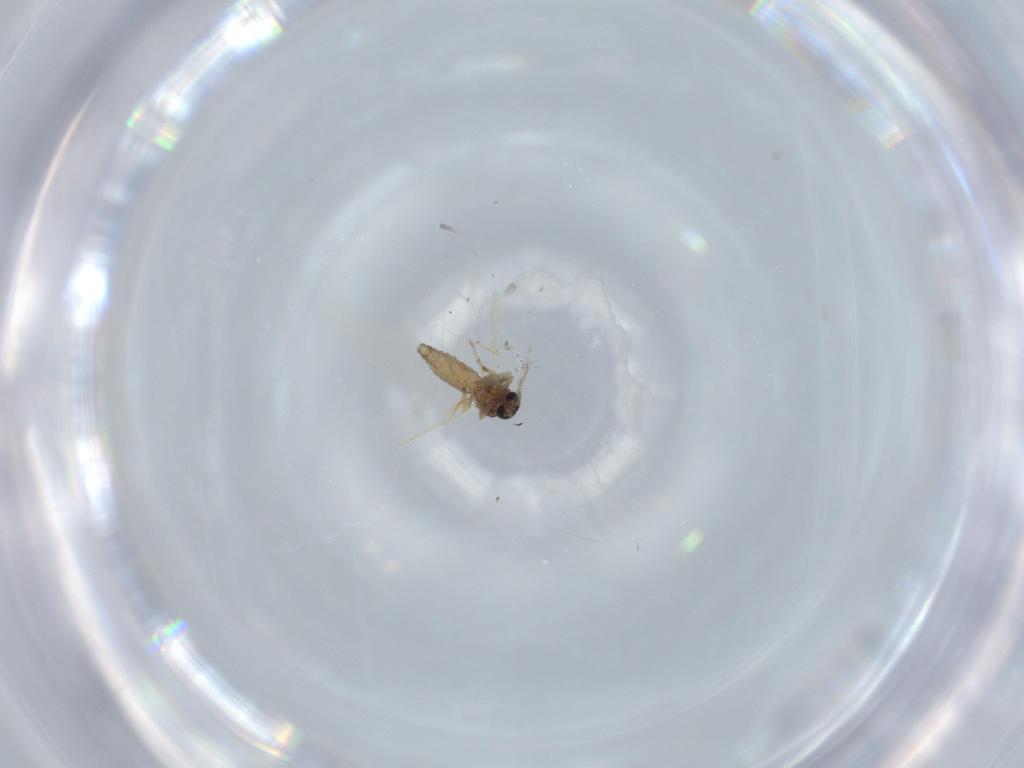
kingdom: Animalia
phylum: Arthropoda
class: Insecta
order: Diptera
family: Ceratopogonidae
